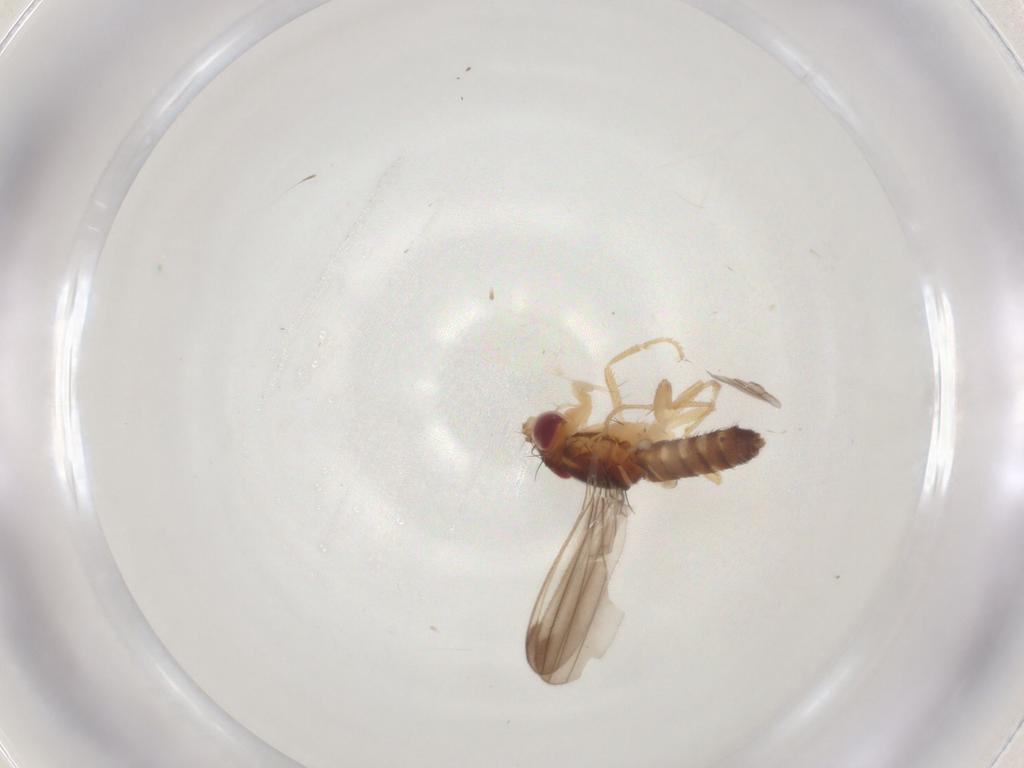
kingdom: Animalia
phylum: Arthropoda
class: Insecta
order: Diptera
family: Anthomyzidae
